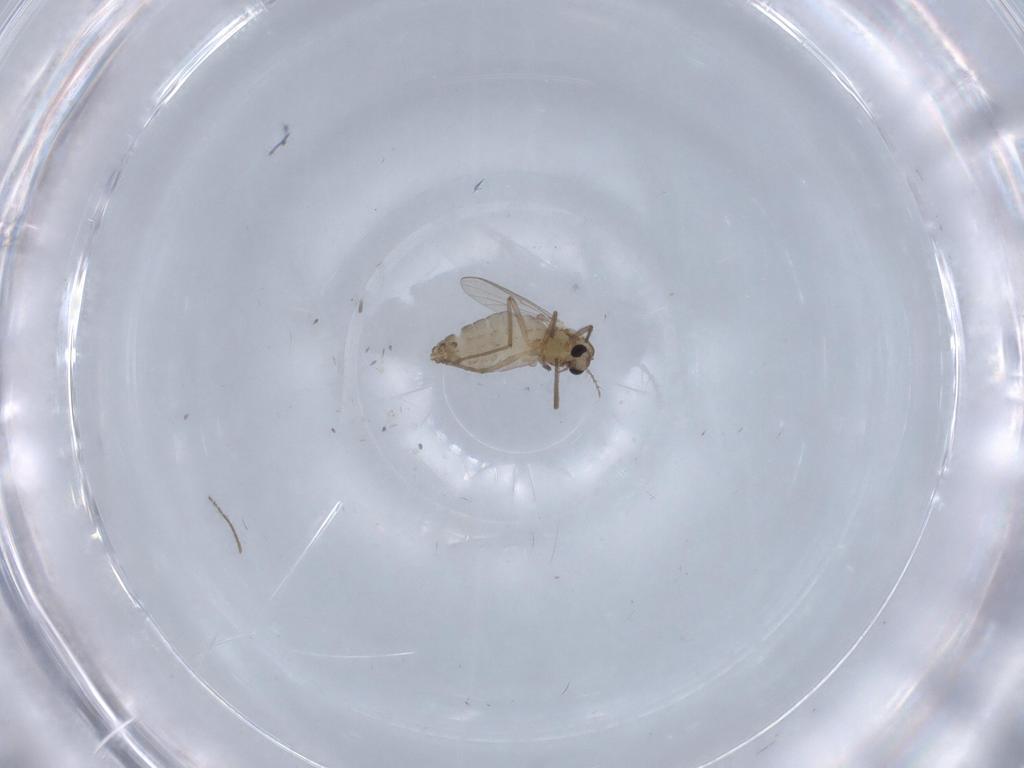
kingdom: Animalia
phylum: Arthropoda
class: Insecta
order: Diptera
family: Chironomidae
